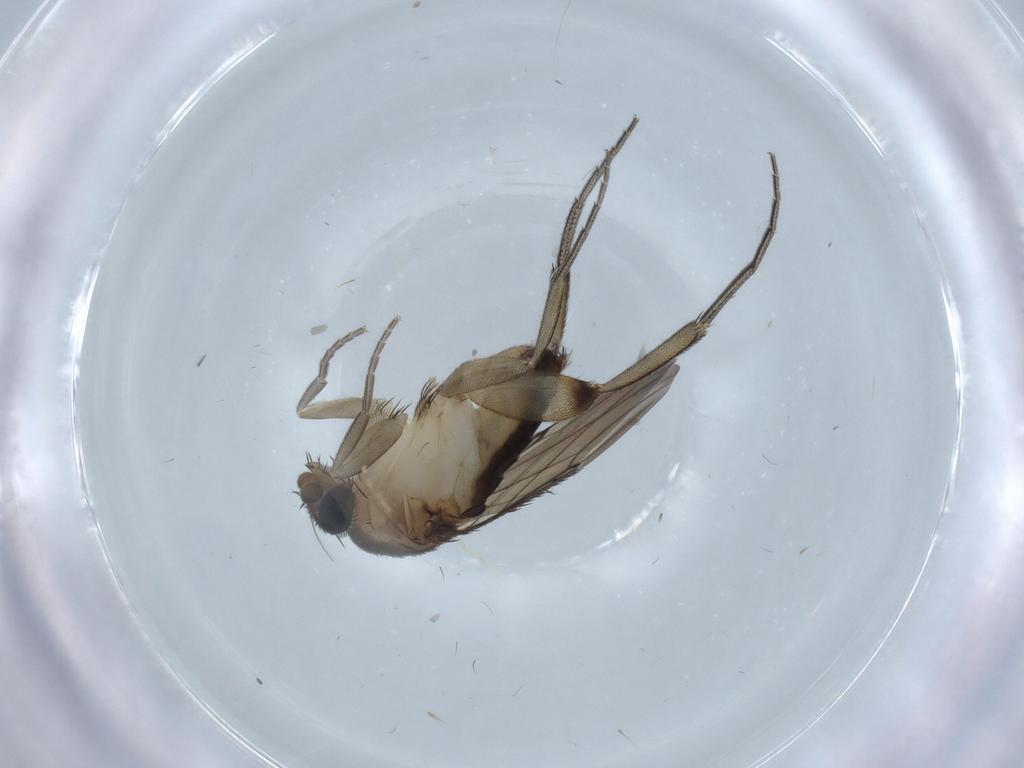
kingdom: Animalia
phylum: Arthropoda
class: Insecta
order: Diptera
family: Phoridae
